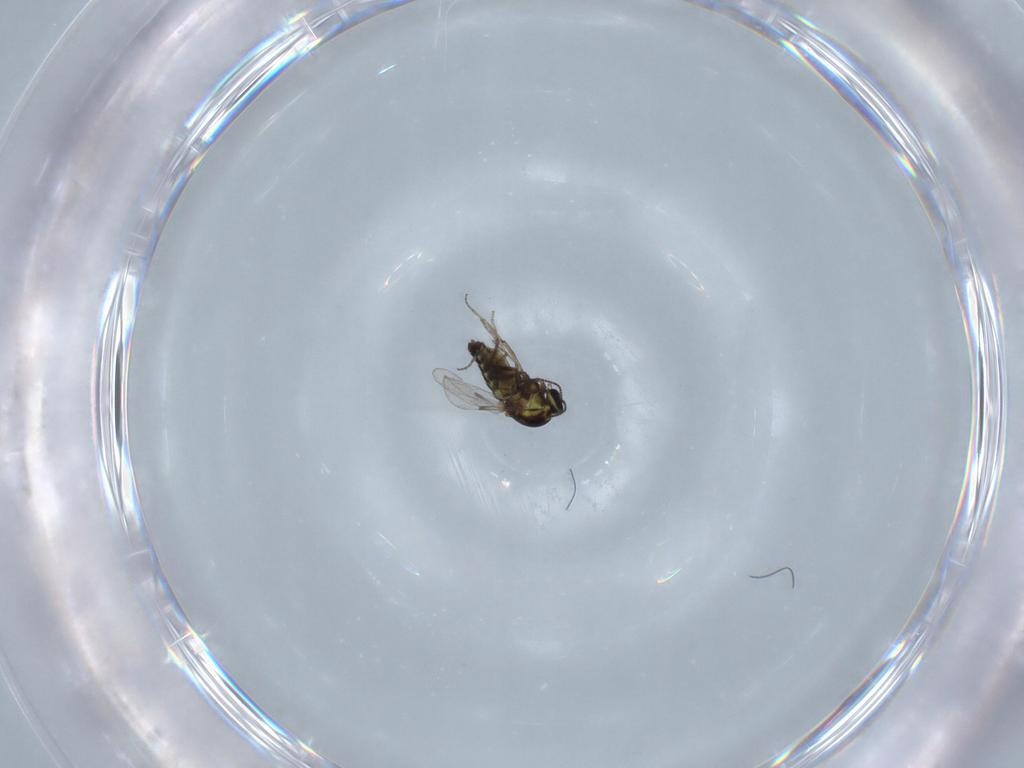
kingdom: Animalia
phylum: Arthropoda
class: Insecta
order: Diptera
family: Ceratopogonidae
